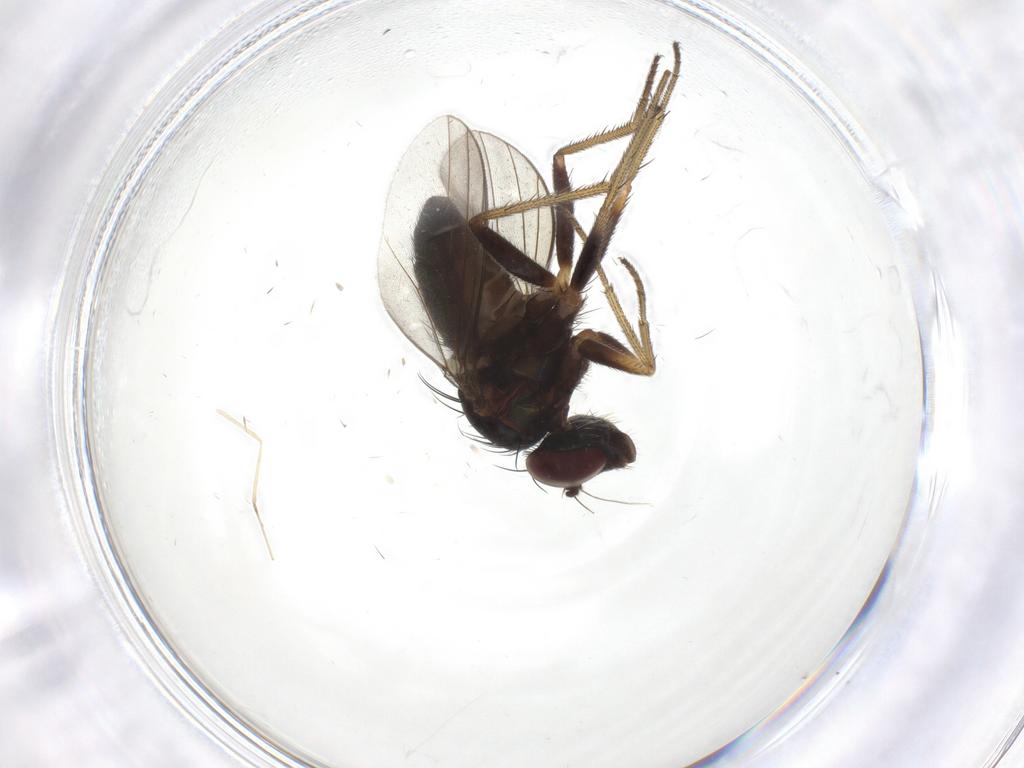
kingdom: Animalia
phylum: Arthropoda
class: Insecta
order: Diptera
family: Dolichopodidae
